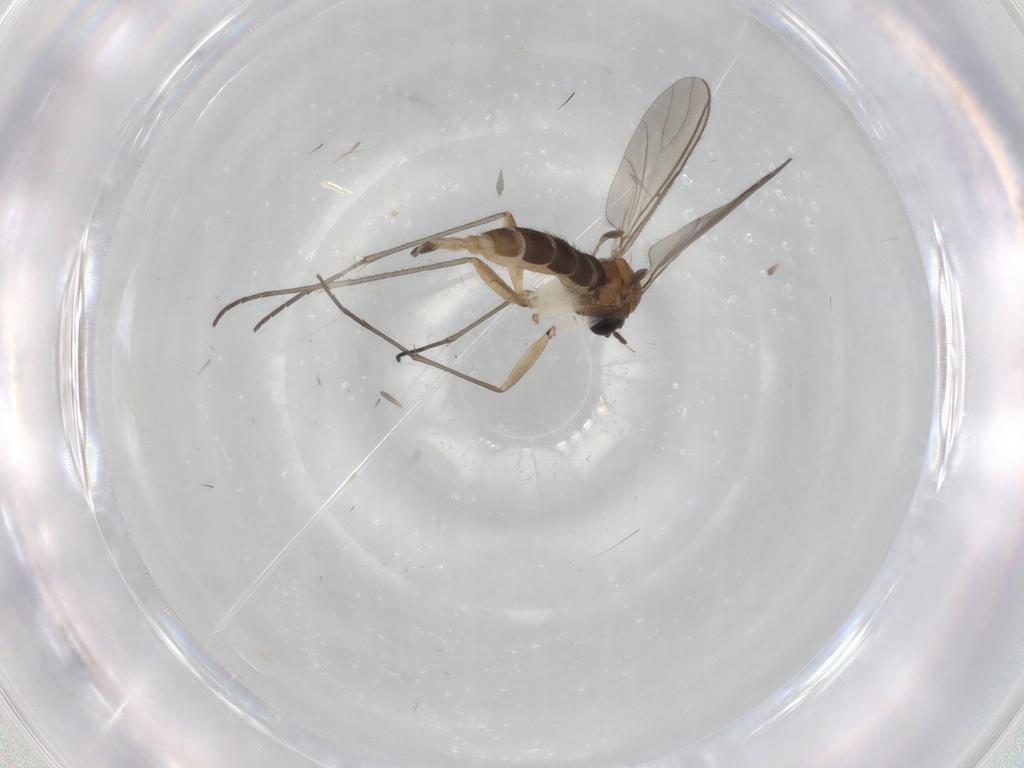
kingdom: Animalia
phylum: Arthropoda
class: Insecta
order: Diptera
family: Sciaridae
